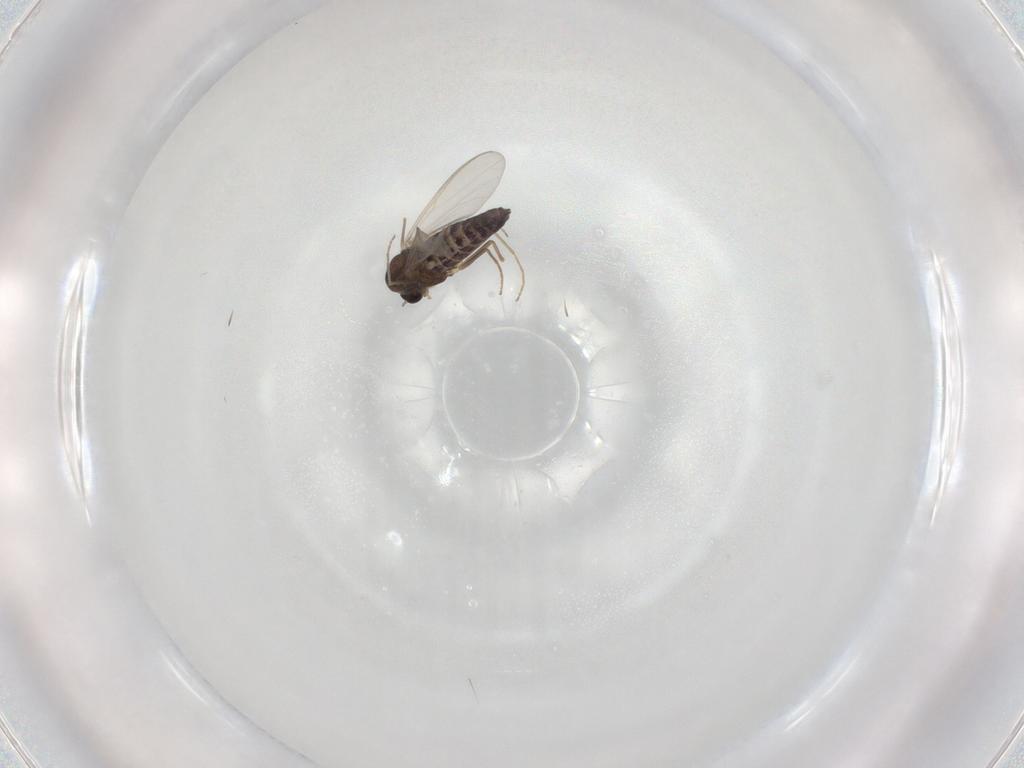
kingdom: Animalia
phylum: Arthropoda
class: Insecta
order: Diptera
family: Chironomidae
